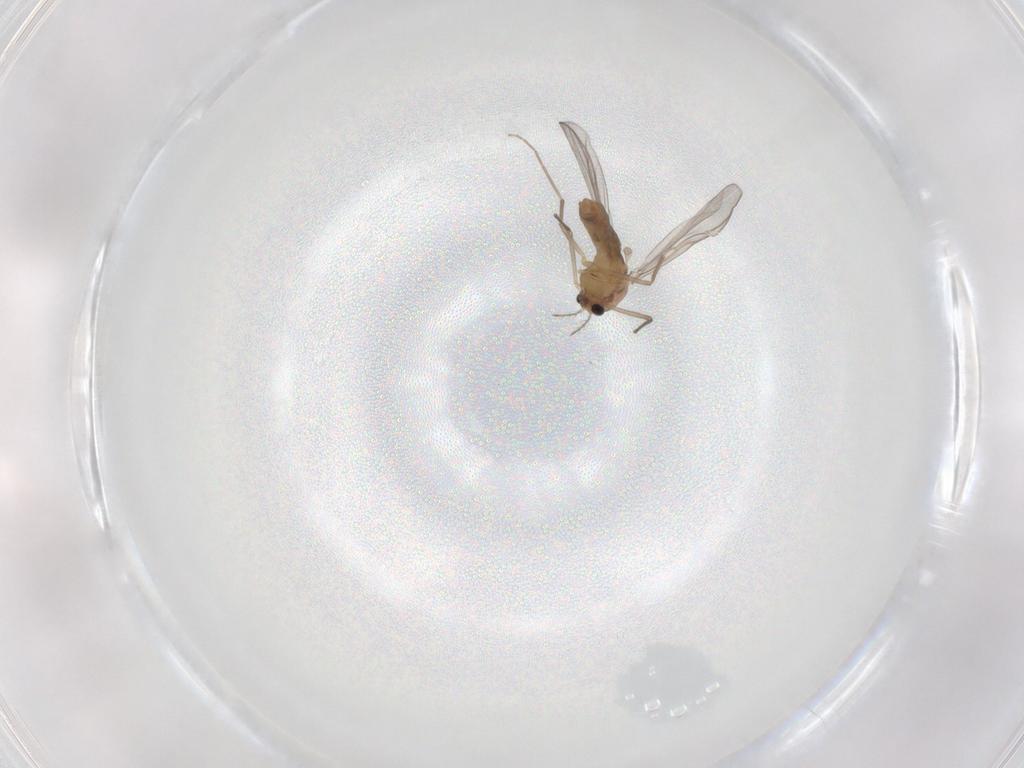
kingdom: Animalia
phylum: Arthropoda
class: Insecta
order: Diptera
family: Chironomidae
